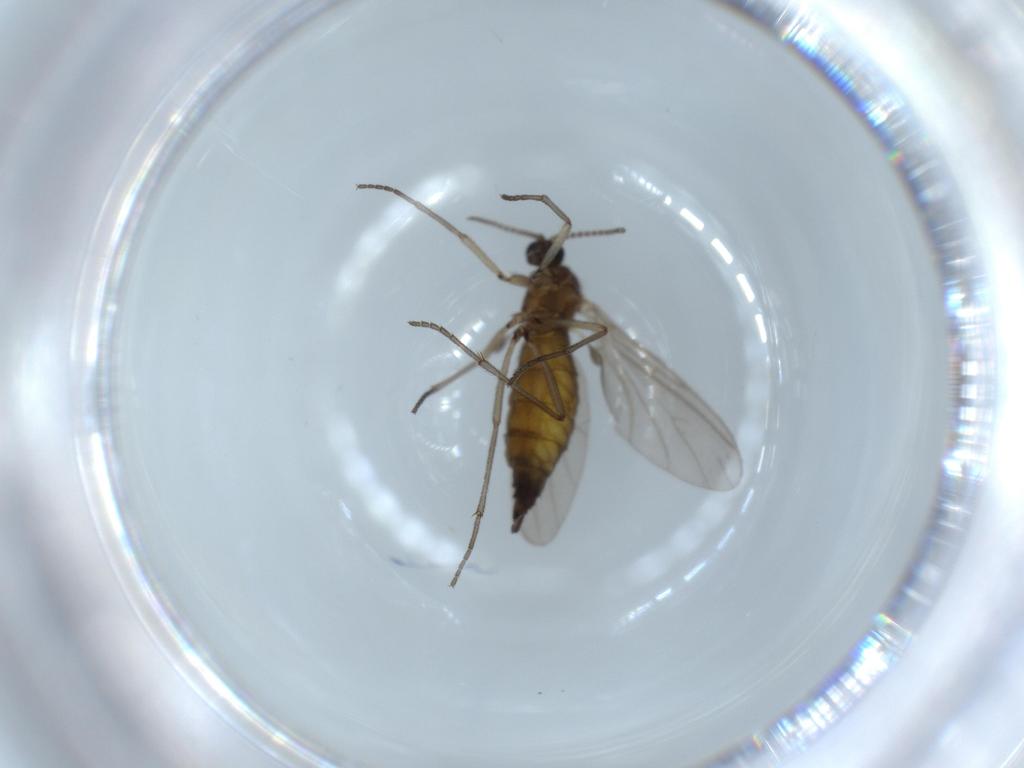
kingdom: Animalia
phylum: Arthropoda
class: Insecta
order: Diptera
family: Sciaridae
